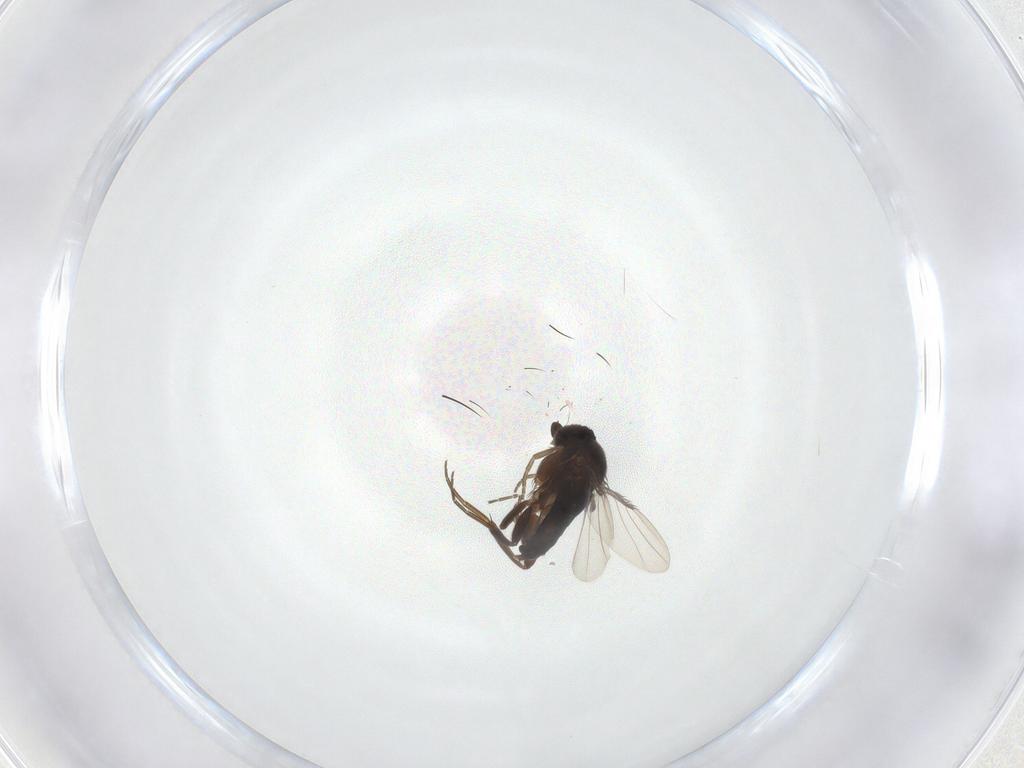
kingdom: Animalia
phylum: Arthropoda
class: Insecta
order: Diptera
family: Heleomyzidae
